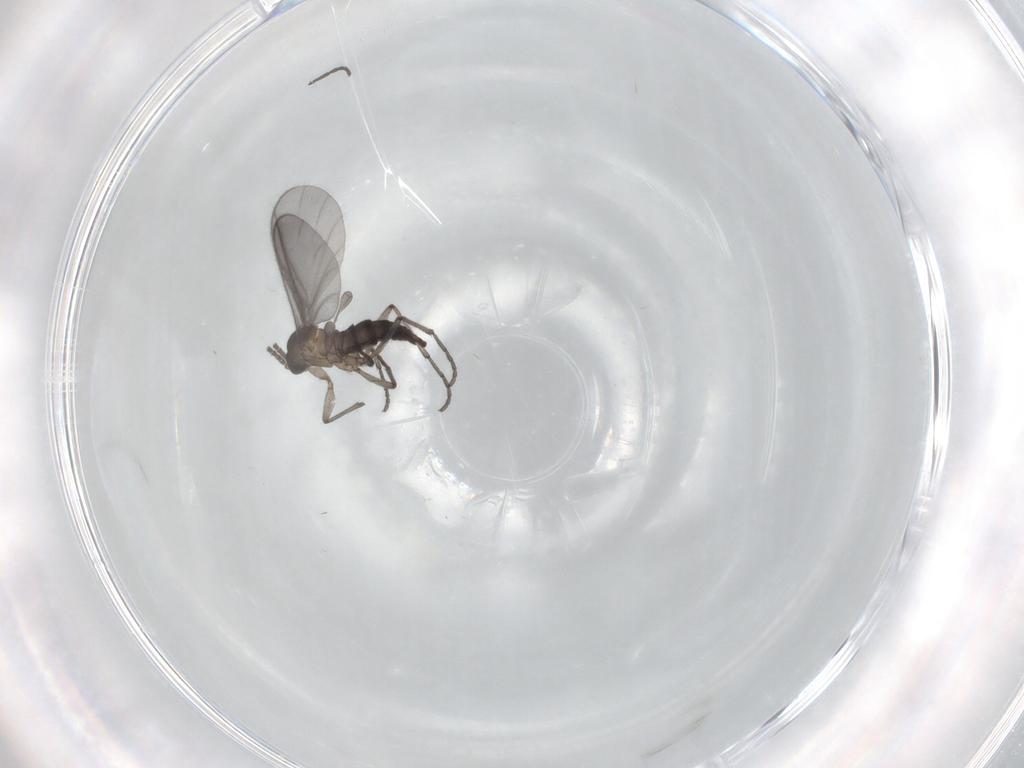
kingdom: Animalia
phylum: Arthropoda
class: Insecta
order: Diptera
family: Sciaridae
